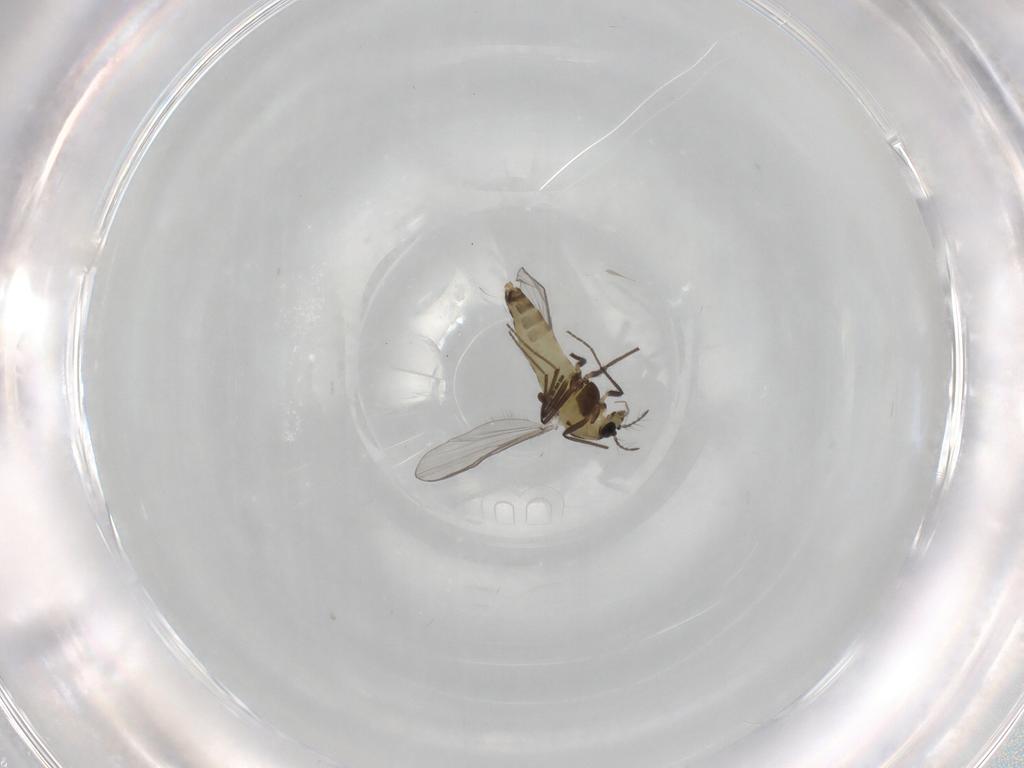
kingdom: Animalia
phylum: Arthropoda
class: Insecta
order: Diptera
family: Chironomidae
